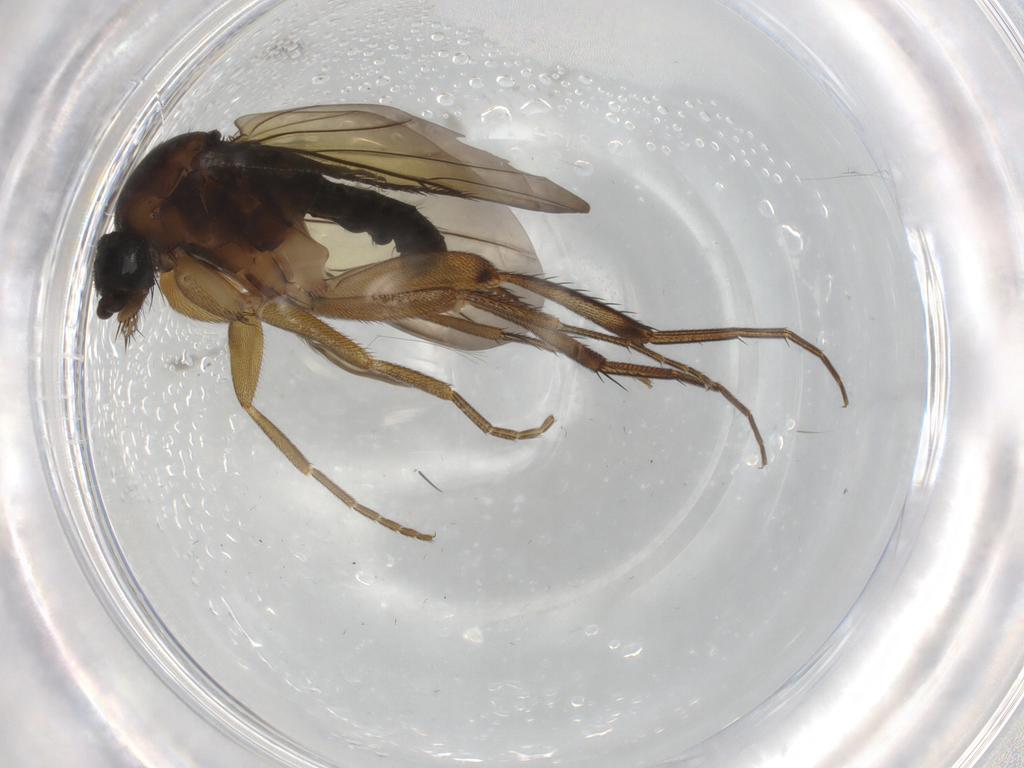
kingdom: Animalia
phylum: Arthropoda
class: Insecta
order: Diptera
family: Phoridae
